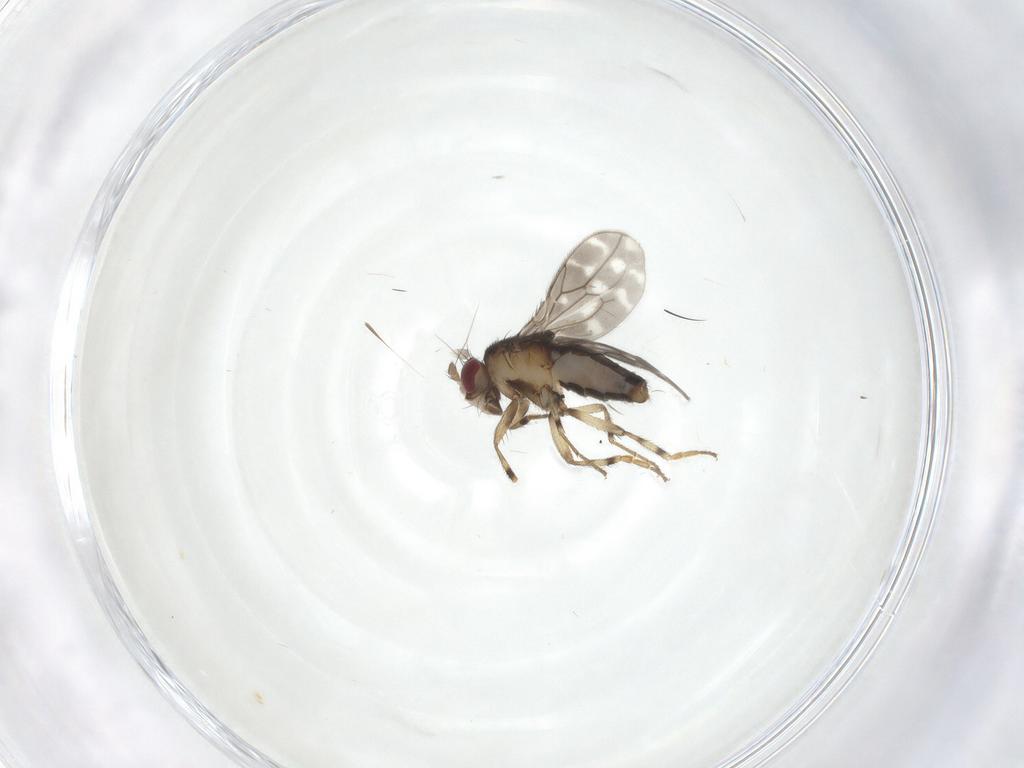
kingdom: Animalia
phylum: Arthropoda
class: Insecta
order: Diptera
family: Sphaeroceridae
